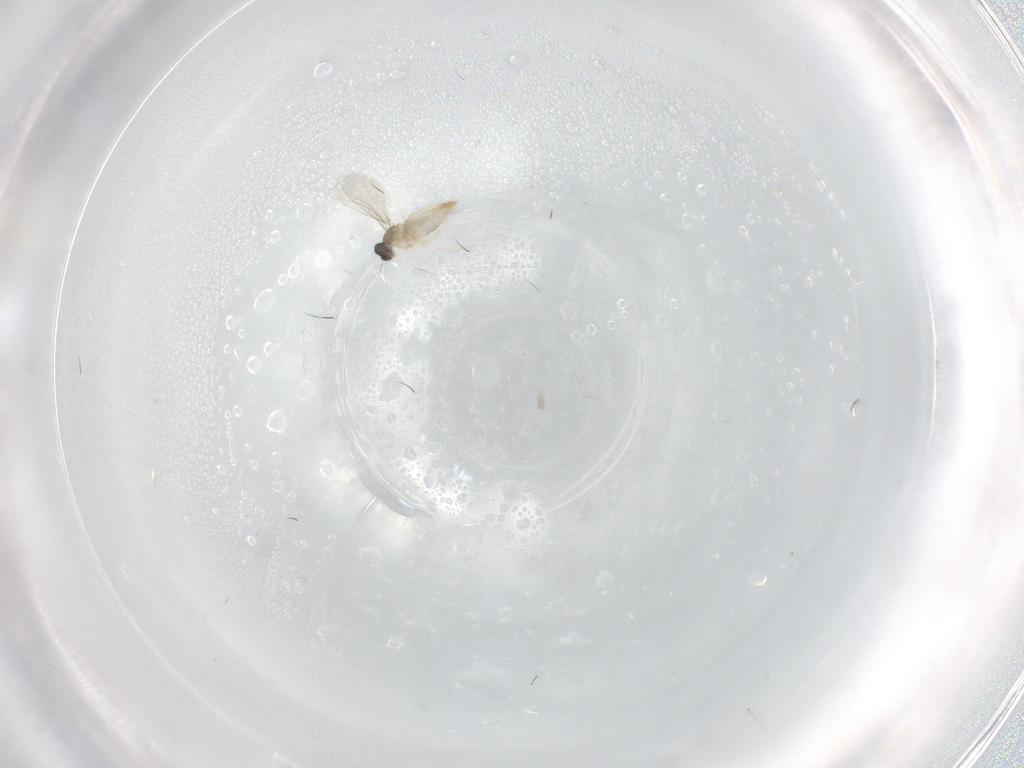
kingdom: Animalia
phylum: Arthropoda
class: Insecta
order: Diptera
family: Cecidomyiidae
